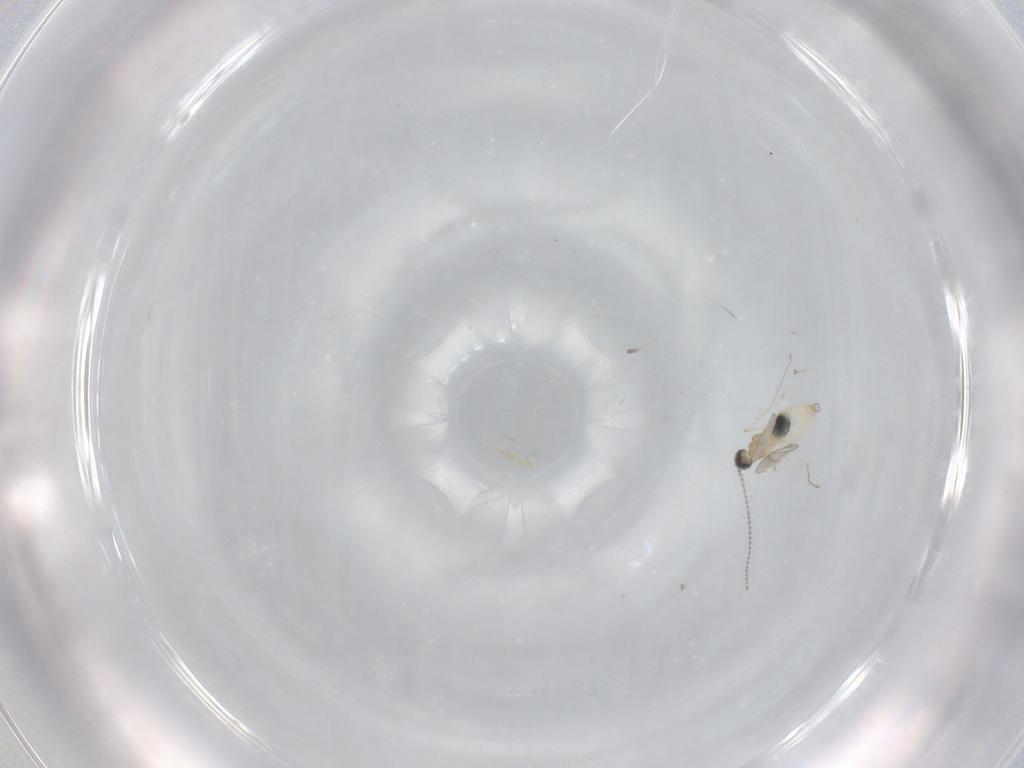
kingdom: Animalia
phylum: Arthropoda
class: Insecta
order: Diptera
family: Cecidomyiidae
